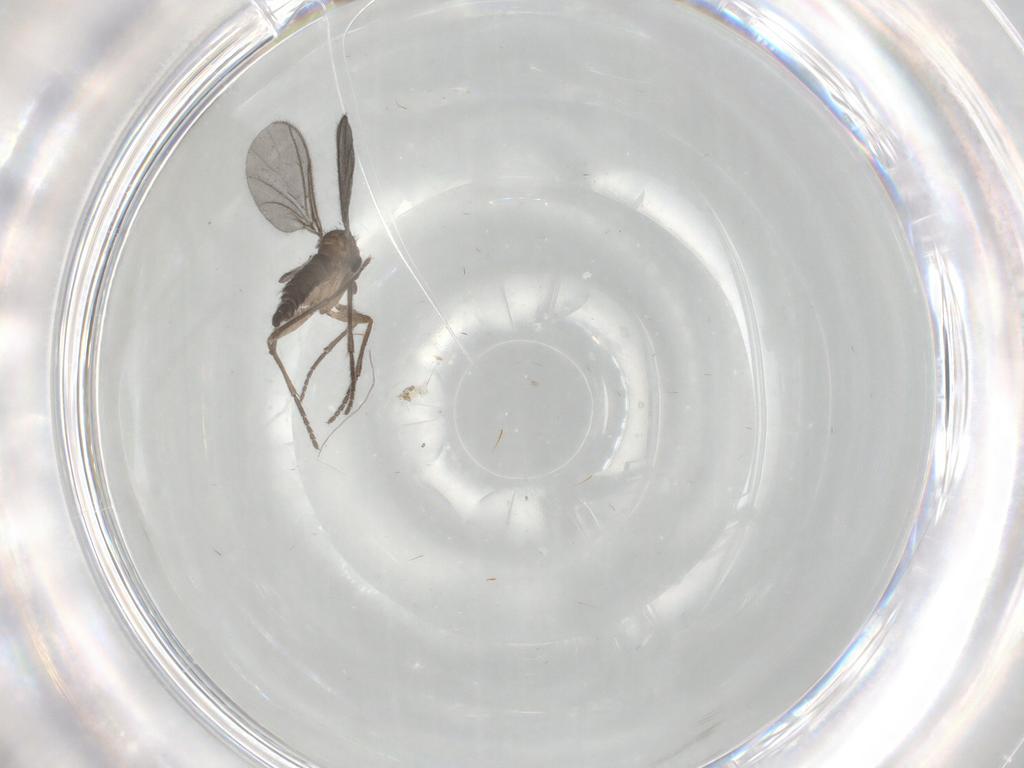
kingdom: Animalia
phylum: Arthropoda
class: Insecta
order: Diptera
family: Sciaridae
